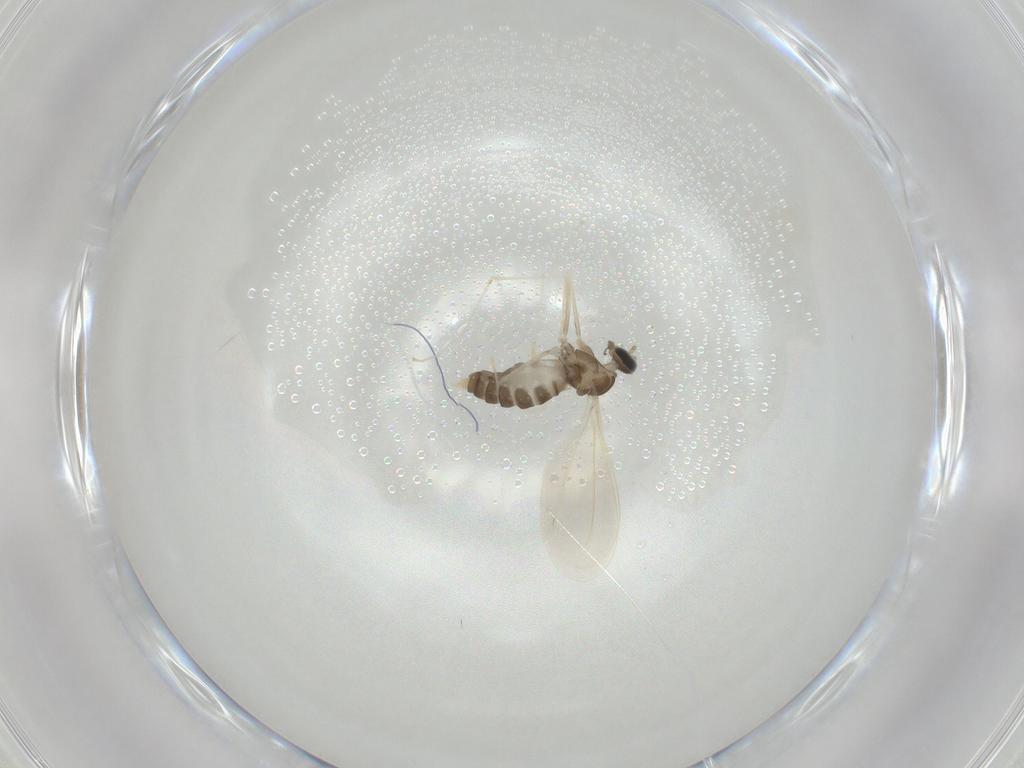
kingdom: Animalia
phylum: Arthropoda
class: Insecta
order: Diptera
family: Cecidomyiidae
